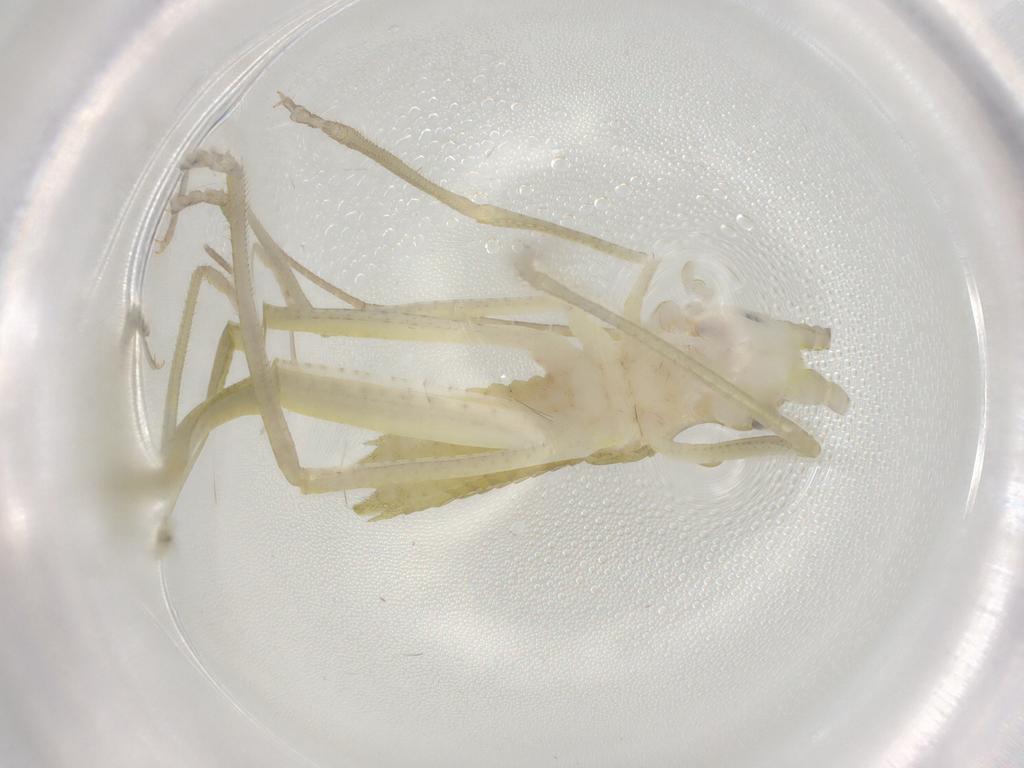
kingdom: Animalia
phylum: Arthropoda
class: Insecta
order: Orthoptera
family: Tettigoniidae
